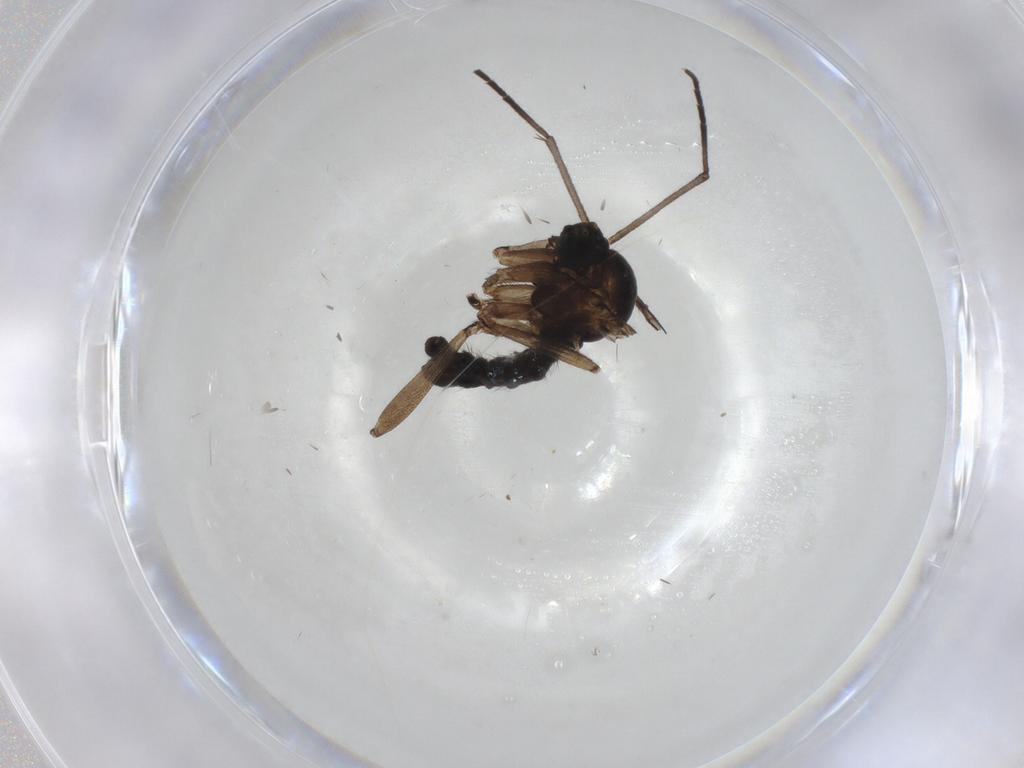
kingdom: Animalia
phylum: Arthropoda
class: Insecta
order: Diptera
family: Sciaridae
